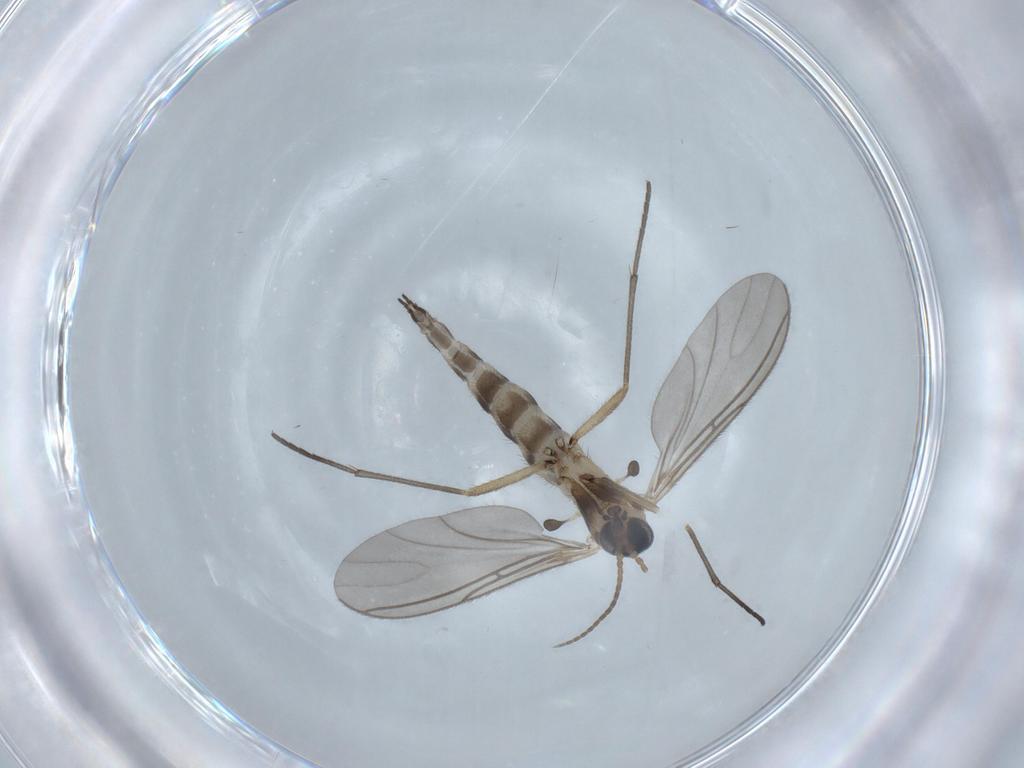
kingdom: Animalia
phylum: Arthropoda
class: Insecta
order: Diptera
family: Sciaridae
